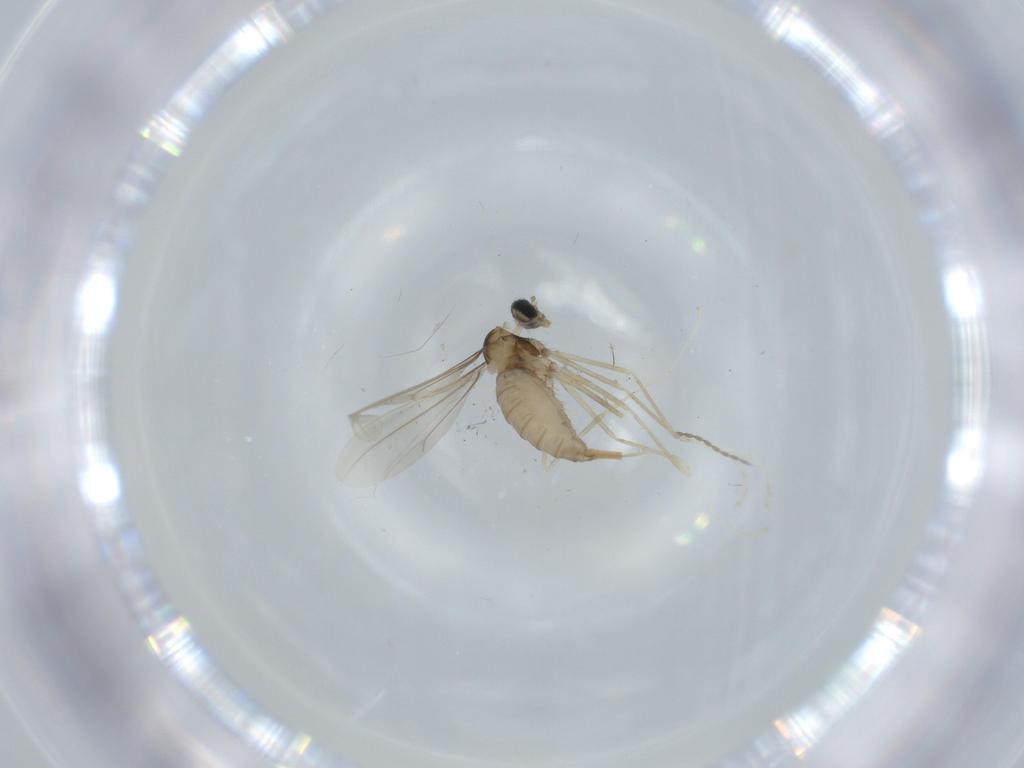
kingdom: Animalia
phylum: Arthropoda
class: Insecta
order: Diptera
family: Cecidomyiidae
